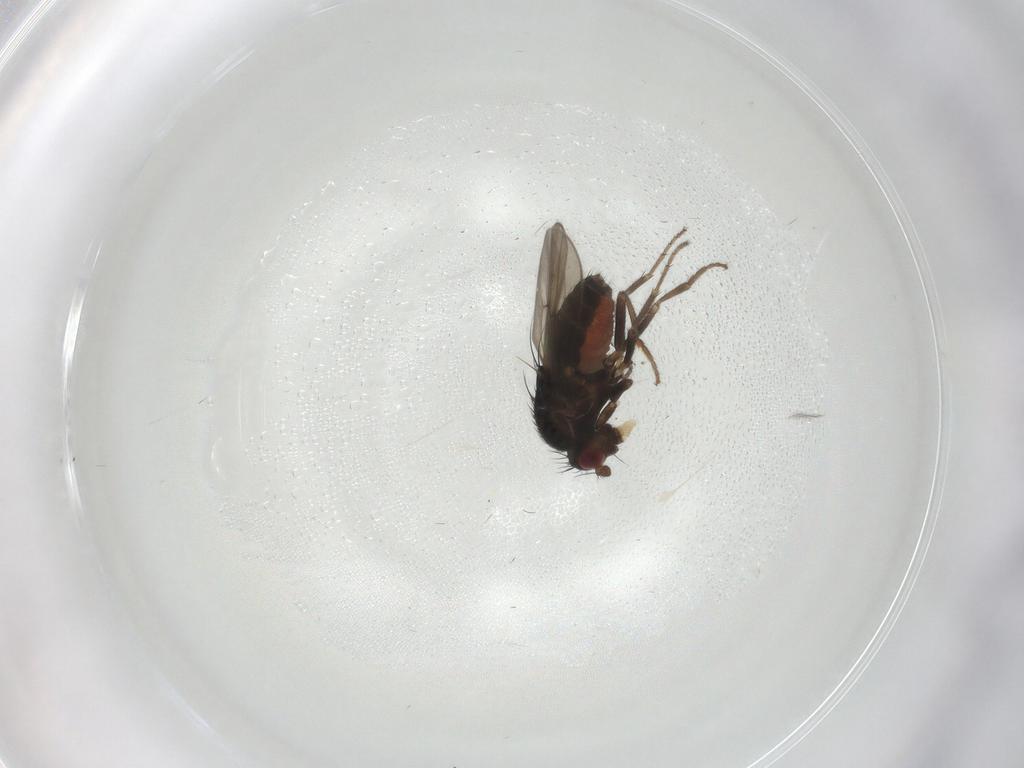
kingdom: Animalia
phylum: Arthropoda
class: Insecta
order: Diptera
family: Sphaeroceridae
